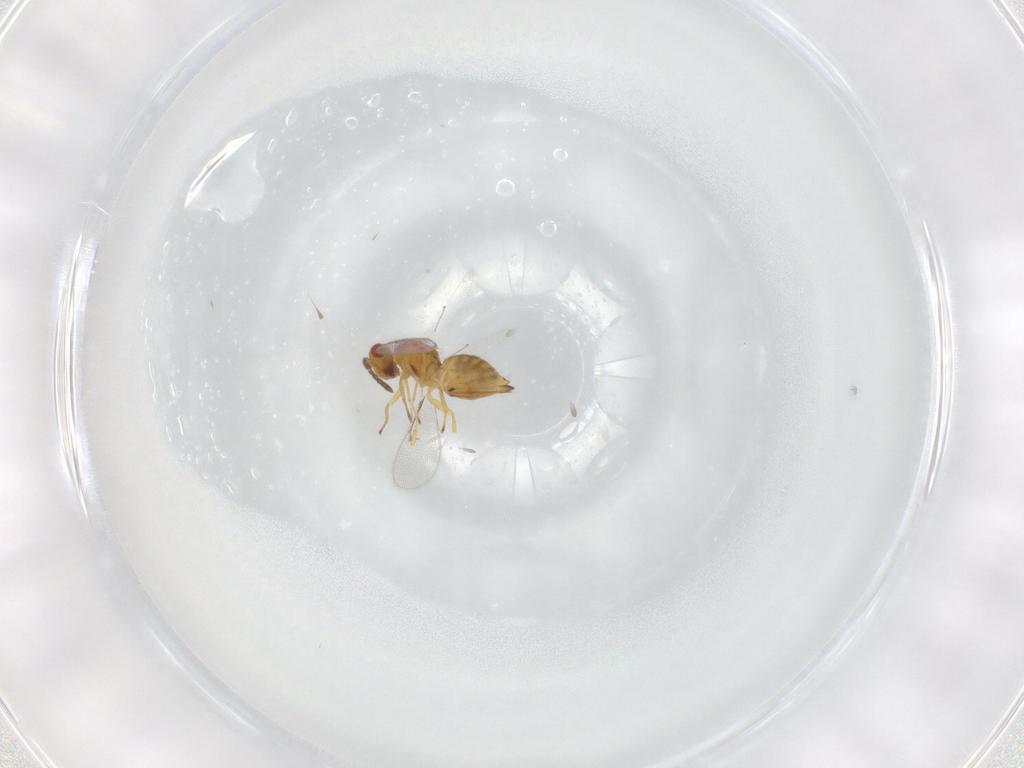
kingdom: Animalia
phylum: Arthropoda
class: Insecta
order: Hymenoptera
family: Eulophidae
